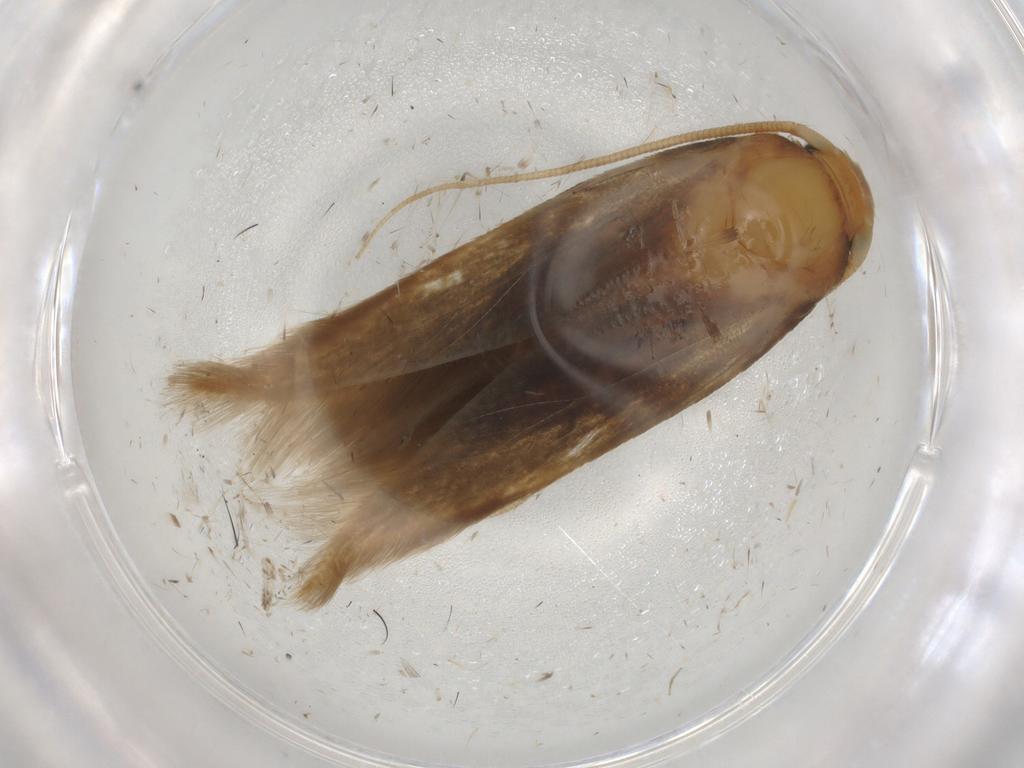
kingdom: Animalia
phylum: Arthropoda
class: Insecta
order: Lepidoptera
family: Tineidae
